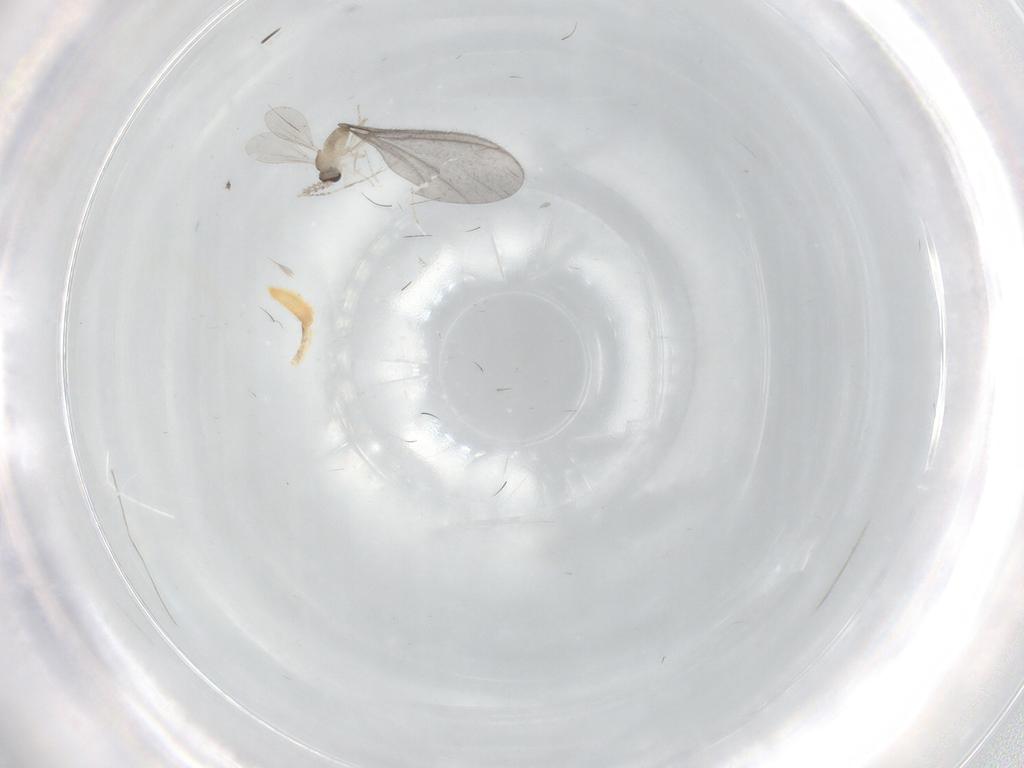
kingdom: Animalia
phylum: Arthropoda
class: Insecta
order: Diptera
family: Cecidomyiidae
